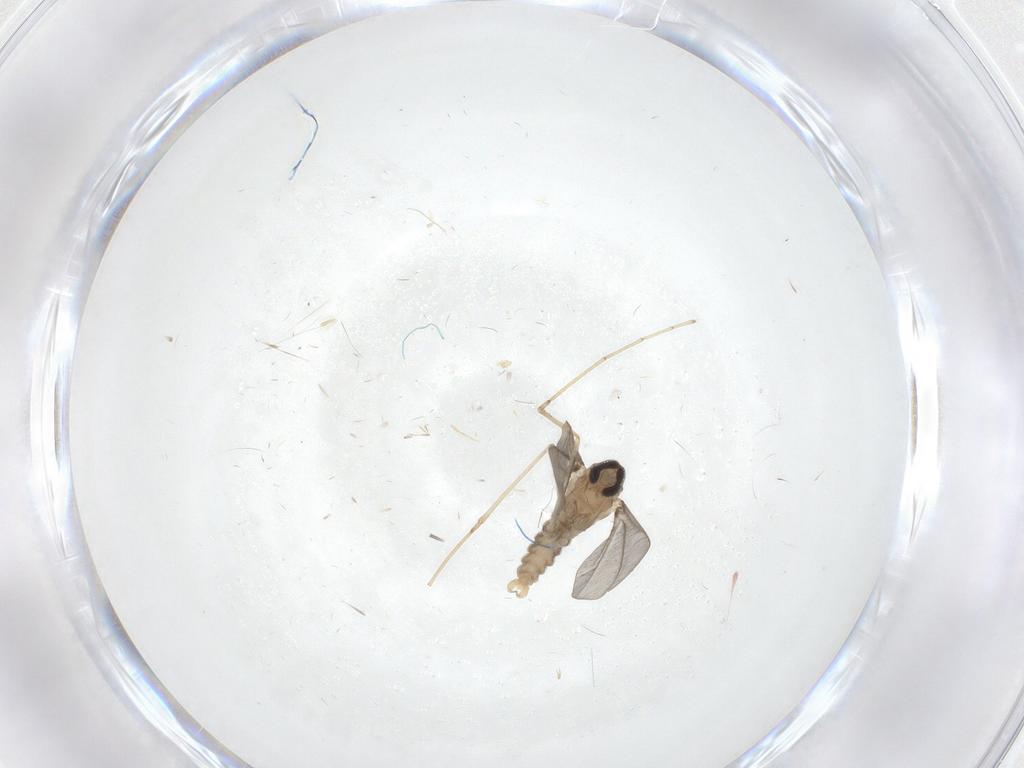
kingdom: Animalia
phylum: Arthropoda
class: Insecta
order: Diptera
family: Cecidomyiidae
